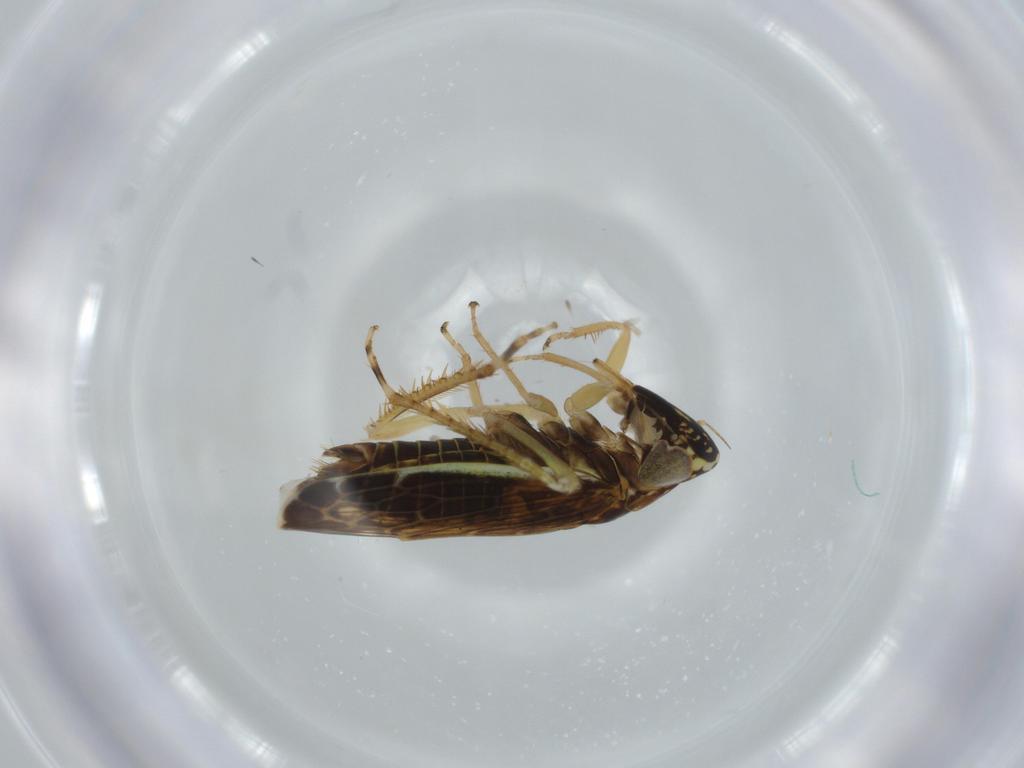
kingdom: Animalia
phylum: Arthropoda
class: Insecta
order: Hemiptera
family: Cicadellidae
